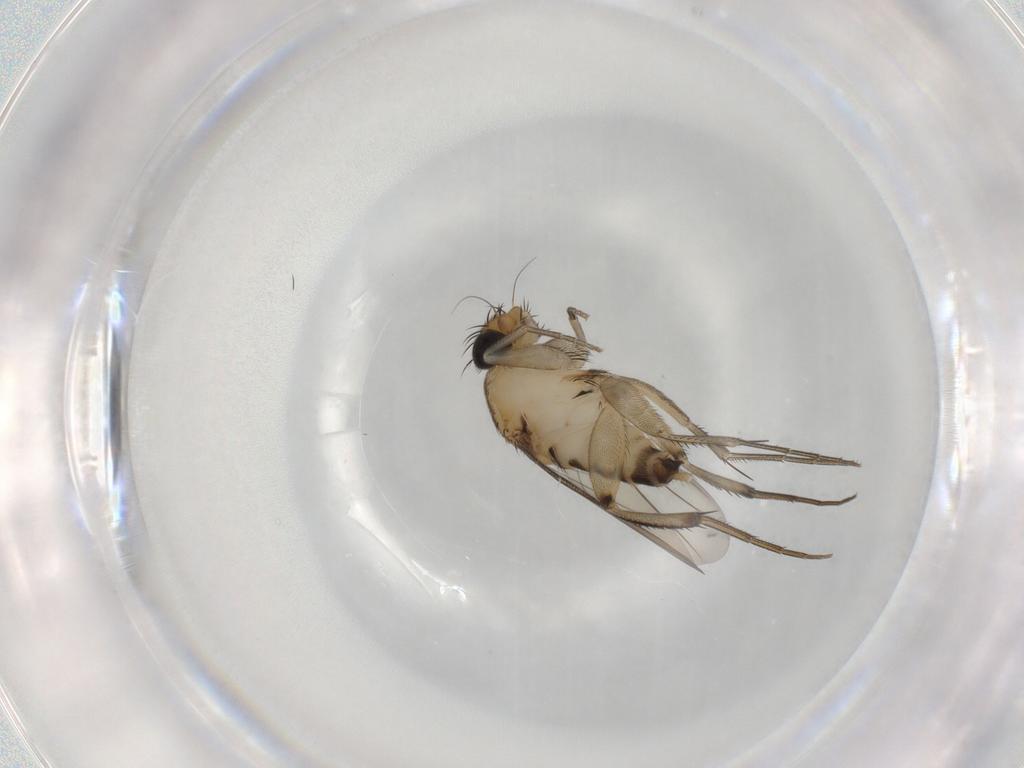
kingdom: Animalia
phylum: Arthropoda
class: Insecta
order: Diptera
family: Phoridae
